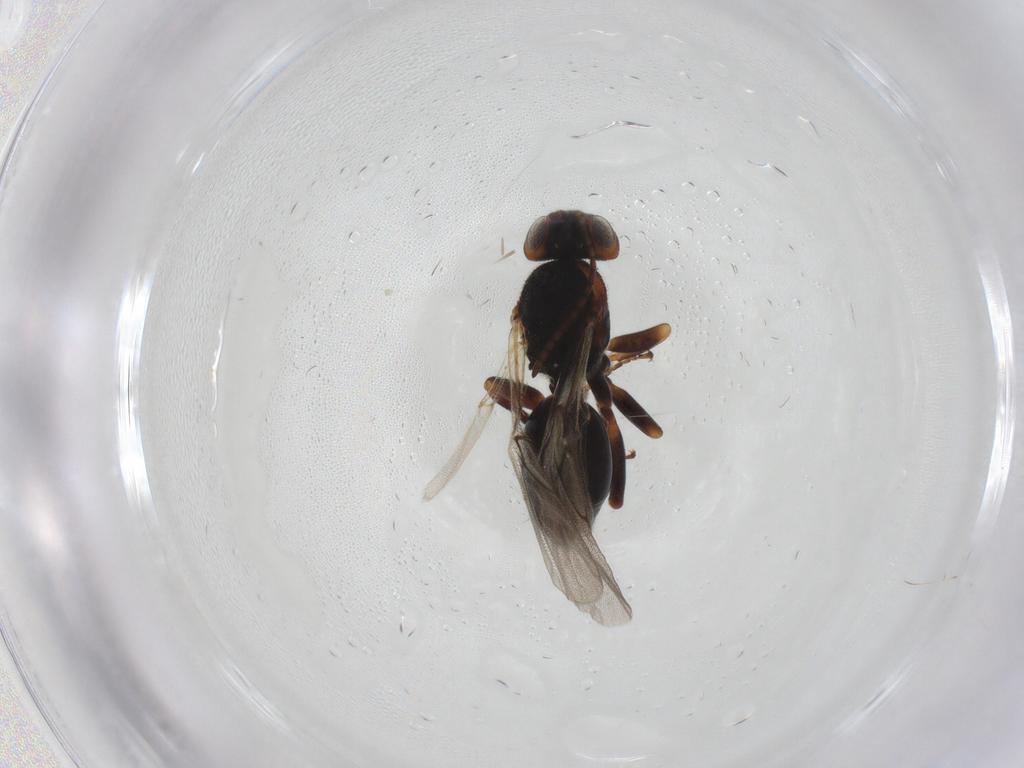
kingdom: Animalia
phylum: Arthropoda
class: Insecta
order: Hymenoptera
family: Cynipidae
